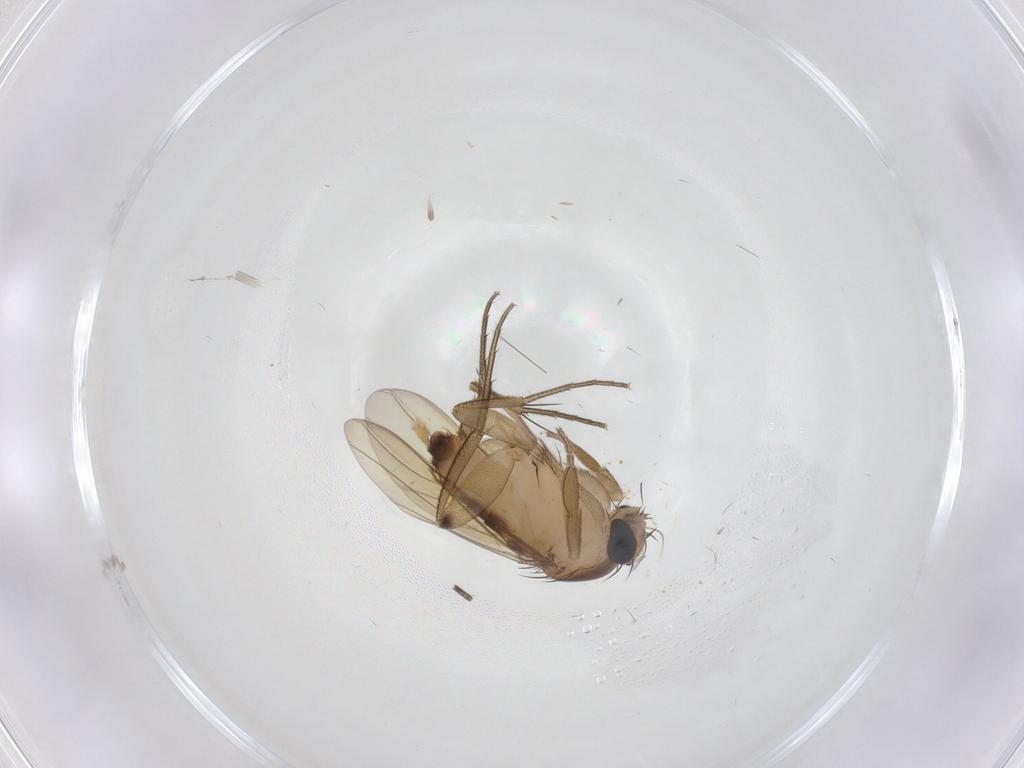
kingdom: Animalia
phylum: Arthropoda
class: Insecta
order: Diptera
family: Phoridae
